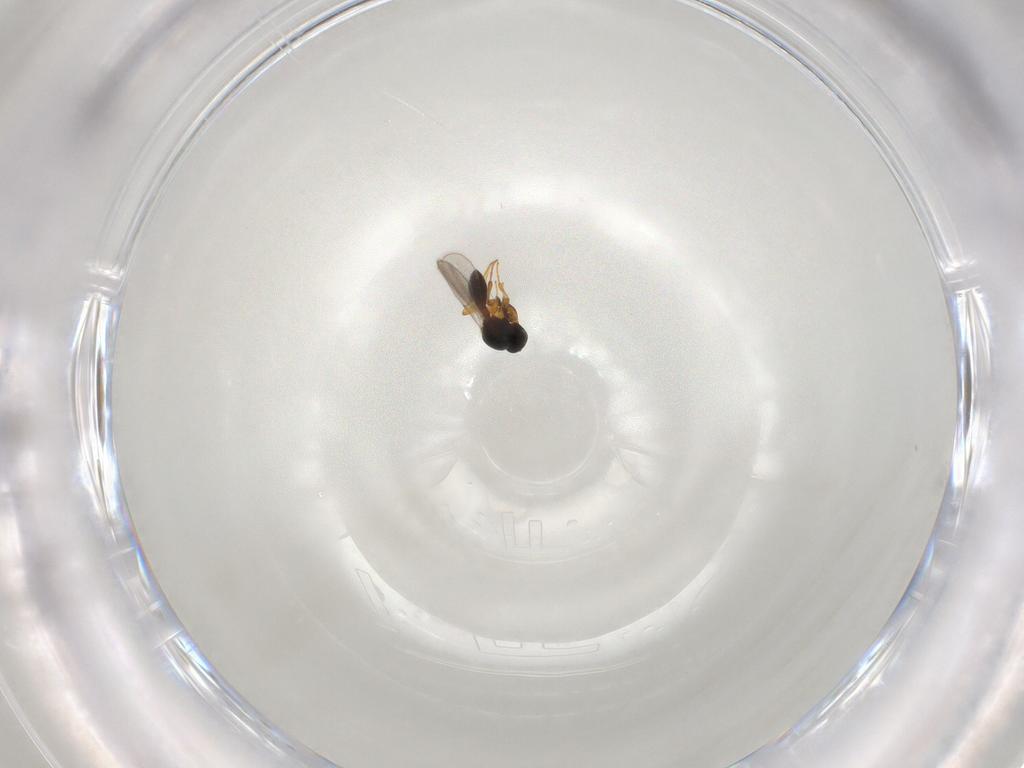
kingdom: Animalia
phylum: Arthropoda
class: Insecta
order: Hymenoptera
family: Platygastridae
